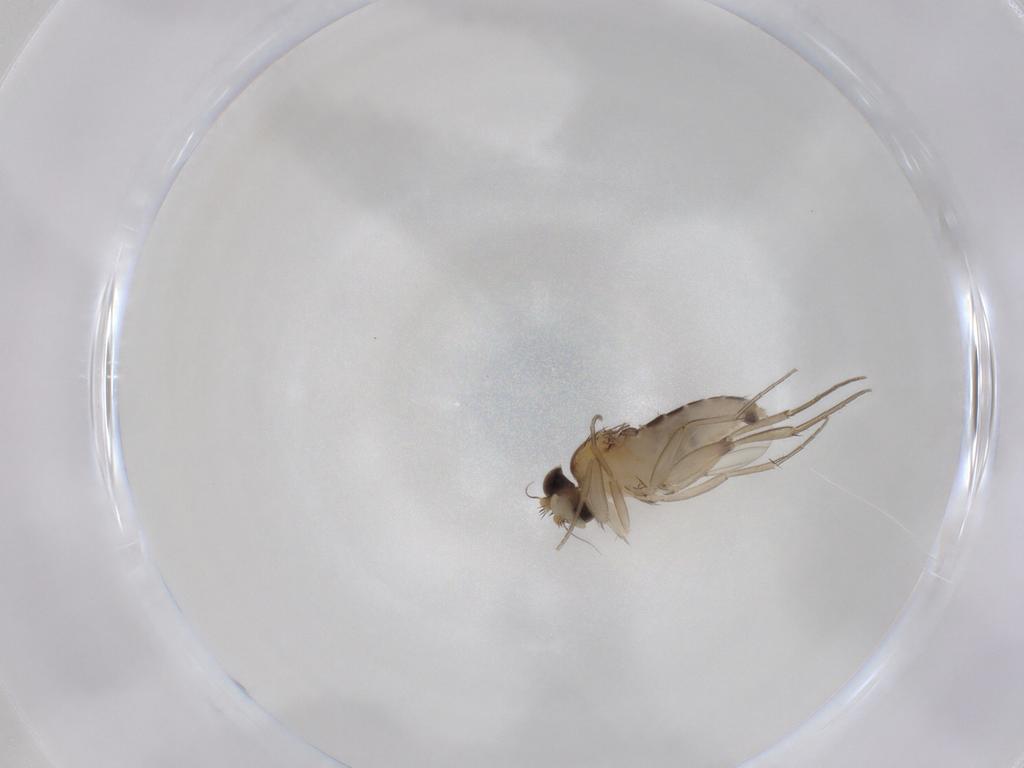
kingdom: Animalia
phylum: Arthropoda
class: Insecta
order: Diptera
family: Phoridae
